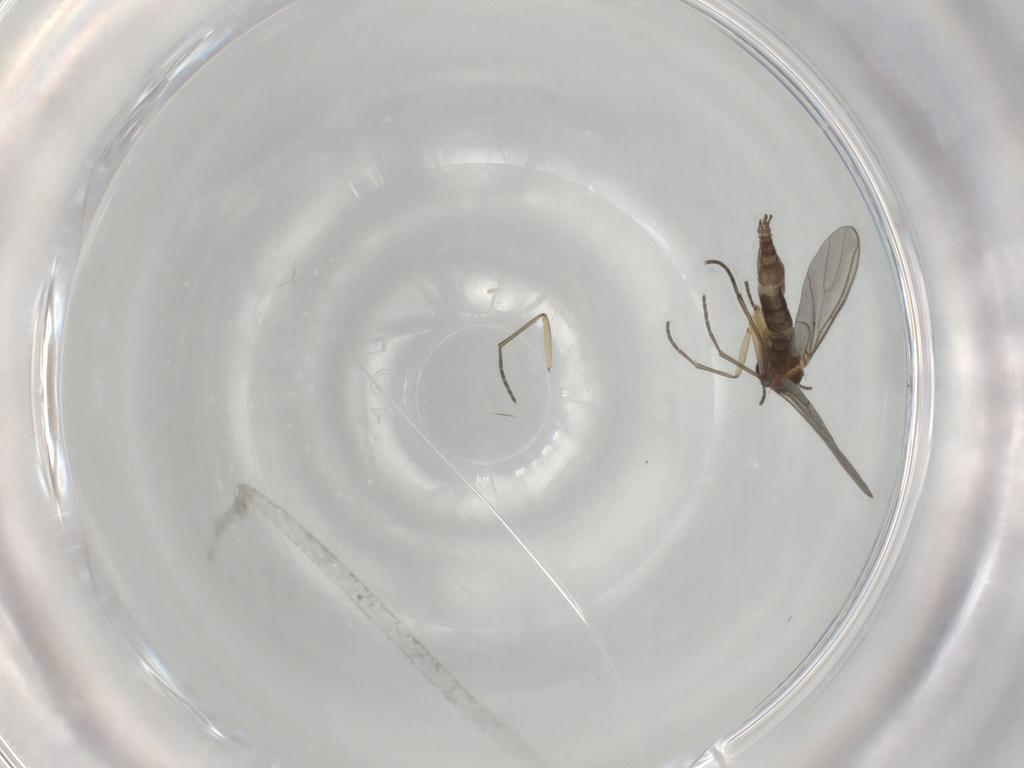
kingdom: Animalia
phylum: Arthropoda
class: Insecta
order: Diptera
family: Sciaridae
